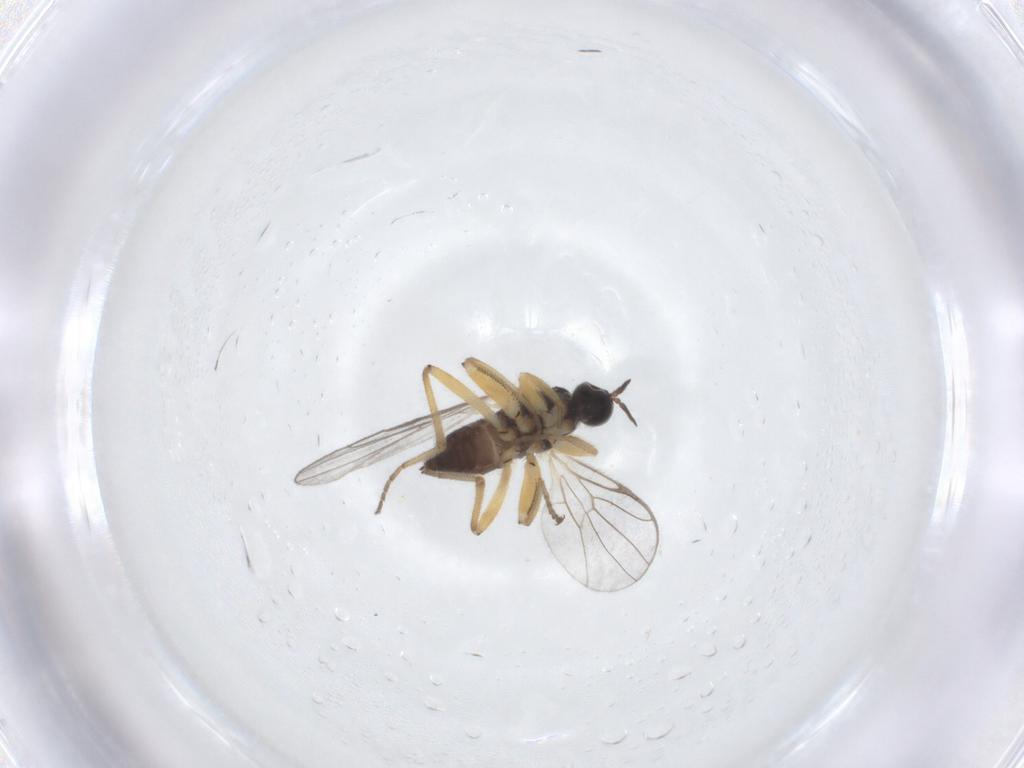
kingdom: Animalia
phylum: Arthropoda
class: Insecta
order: Diptera
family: Hybotidae
